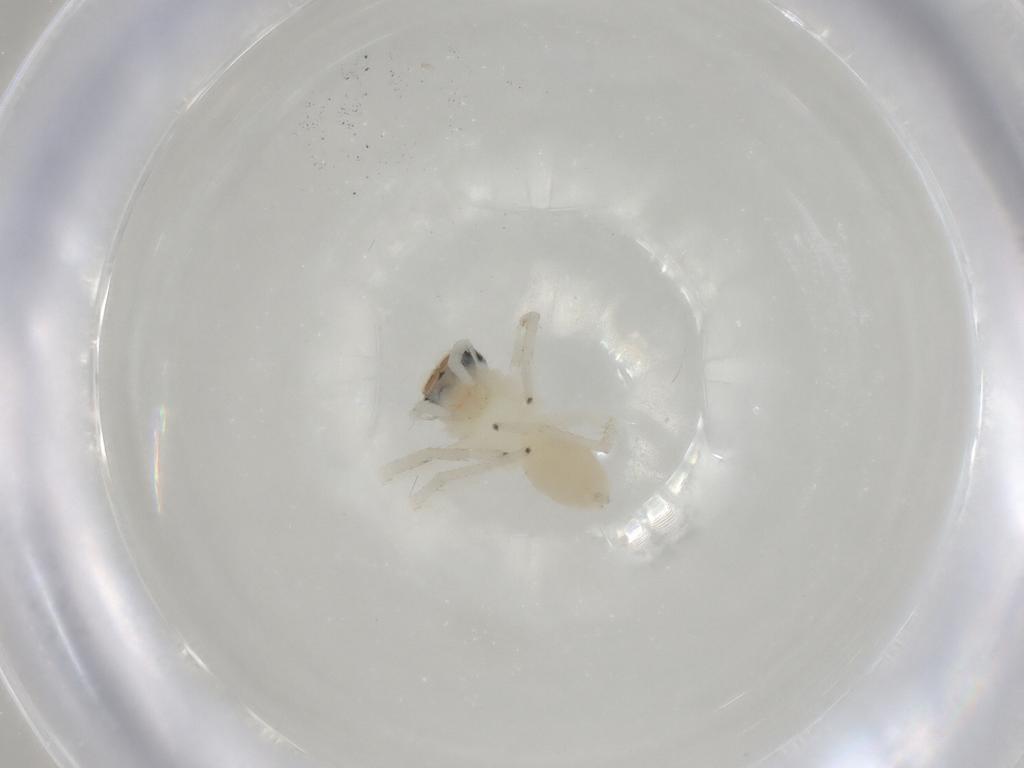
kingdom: Animalia
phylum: Arthropoda
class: Arachnida
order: Araneae
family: Salticidae
